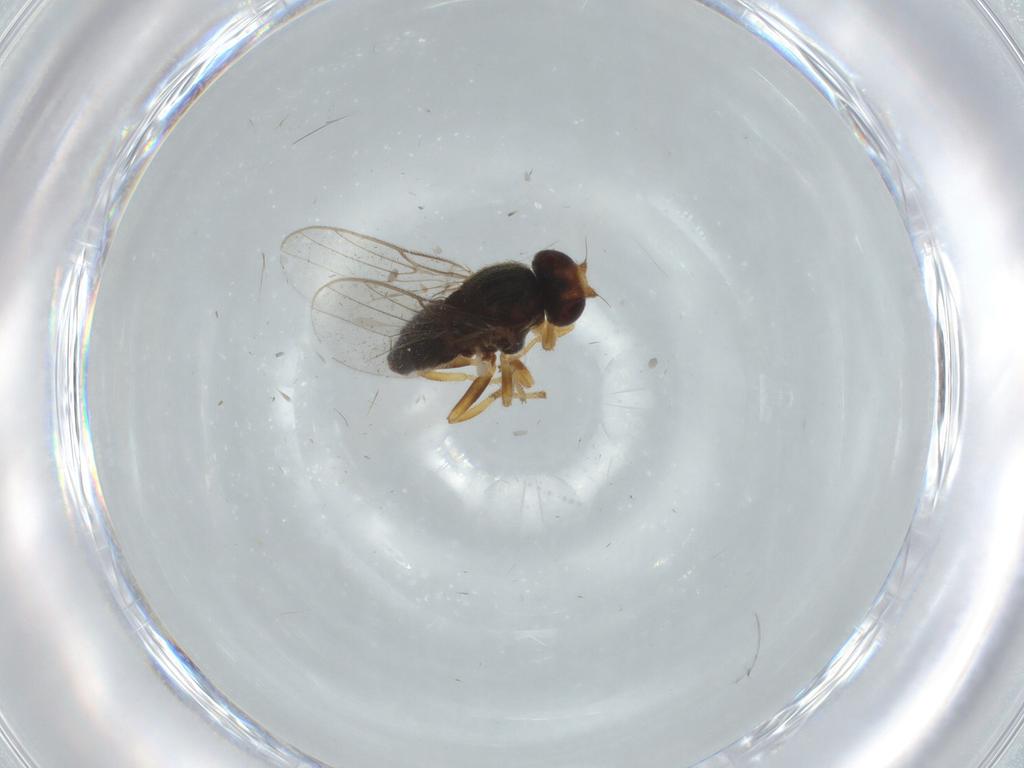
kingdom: Animalia
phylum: Arthropoda
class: Insecta
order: Diptera
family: Chloropidae
